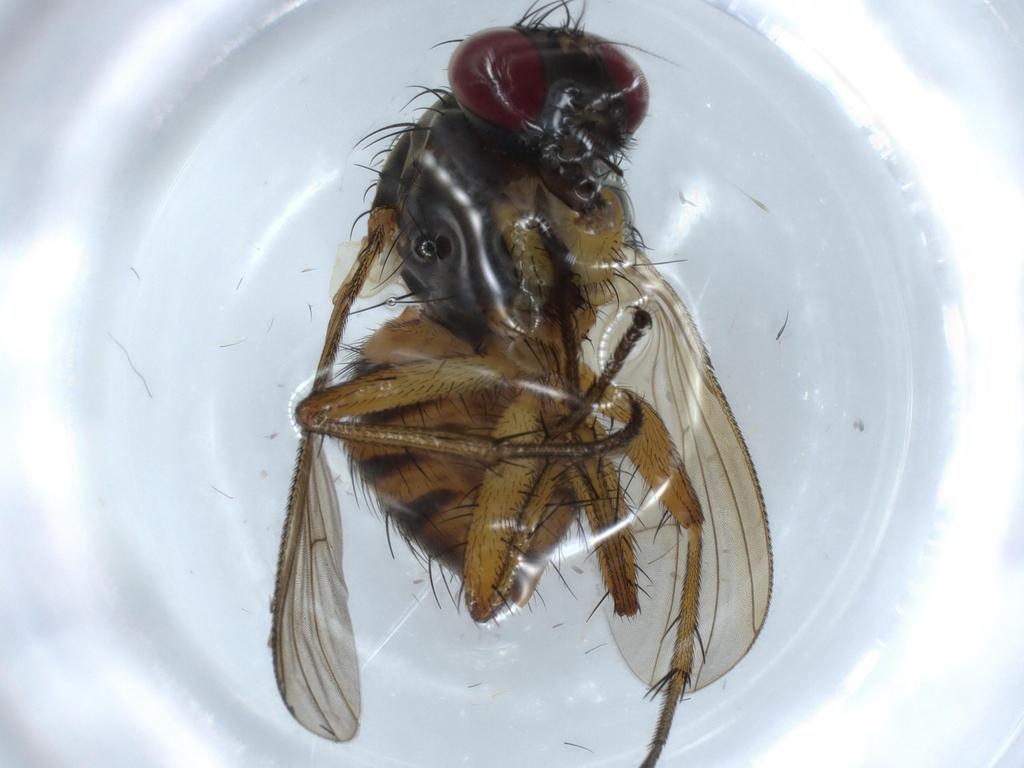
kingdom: Animalia
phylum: Arthropoda
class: Insecta
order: Diptera
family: Muscidae
